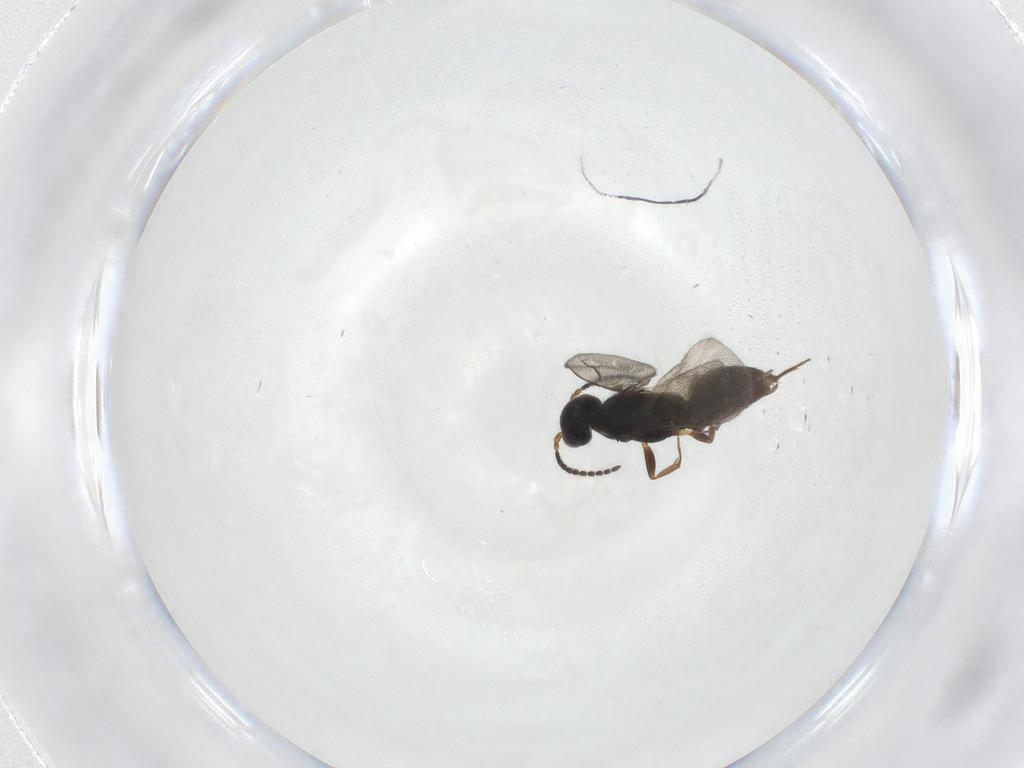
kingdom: Animalia
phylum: Arthropoda
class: Insecta
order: Hymenoptera
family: Bethylidae
